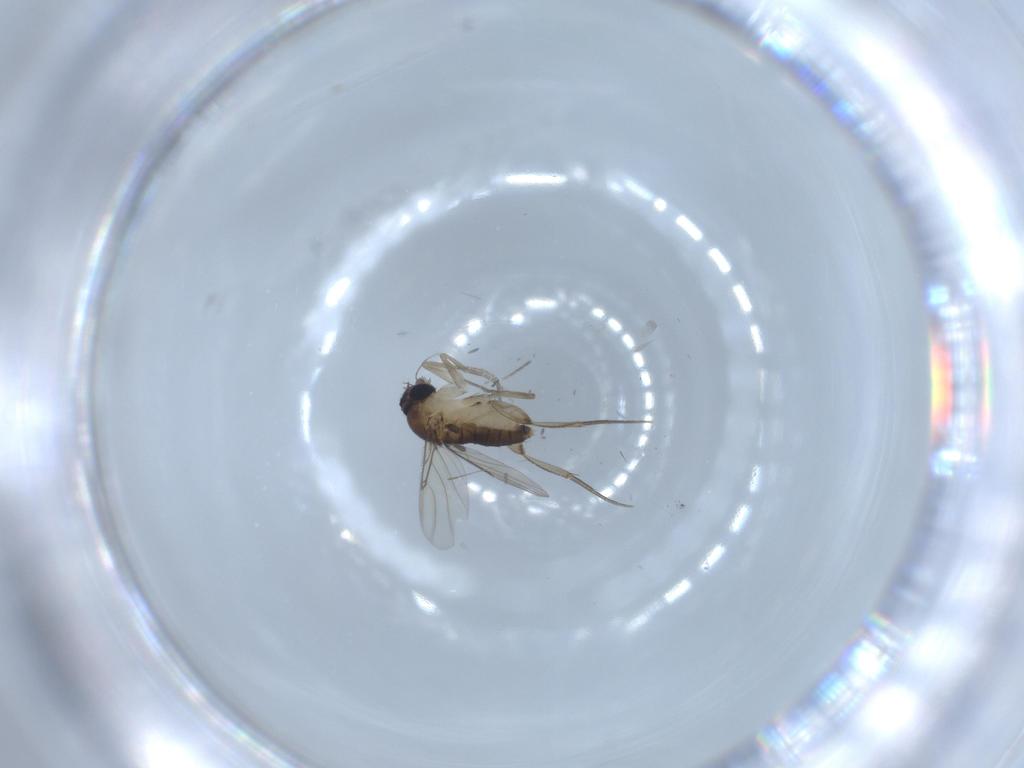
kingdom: Animalia
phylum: Arthropoda
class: Insecta
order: Diptera
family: Phoridae
